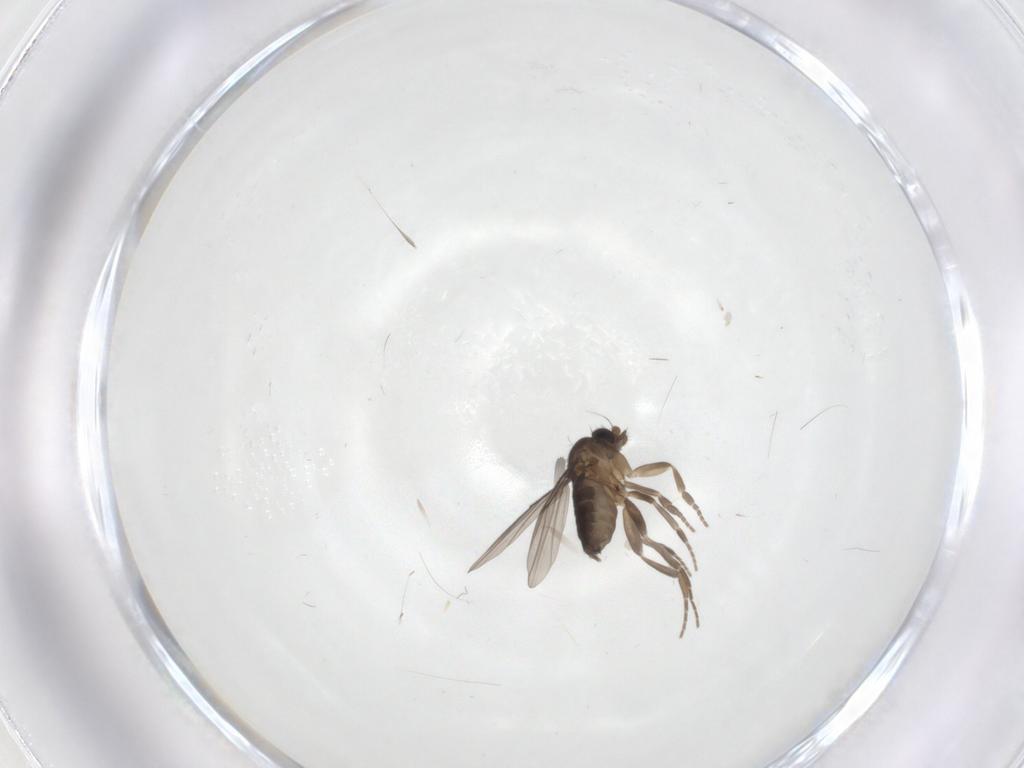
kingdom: Animalia
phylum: Arthropoda
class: Insecta
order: Diptera
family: Phoridae
